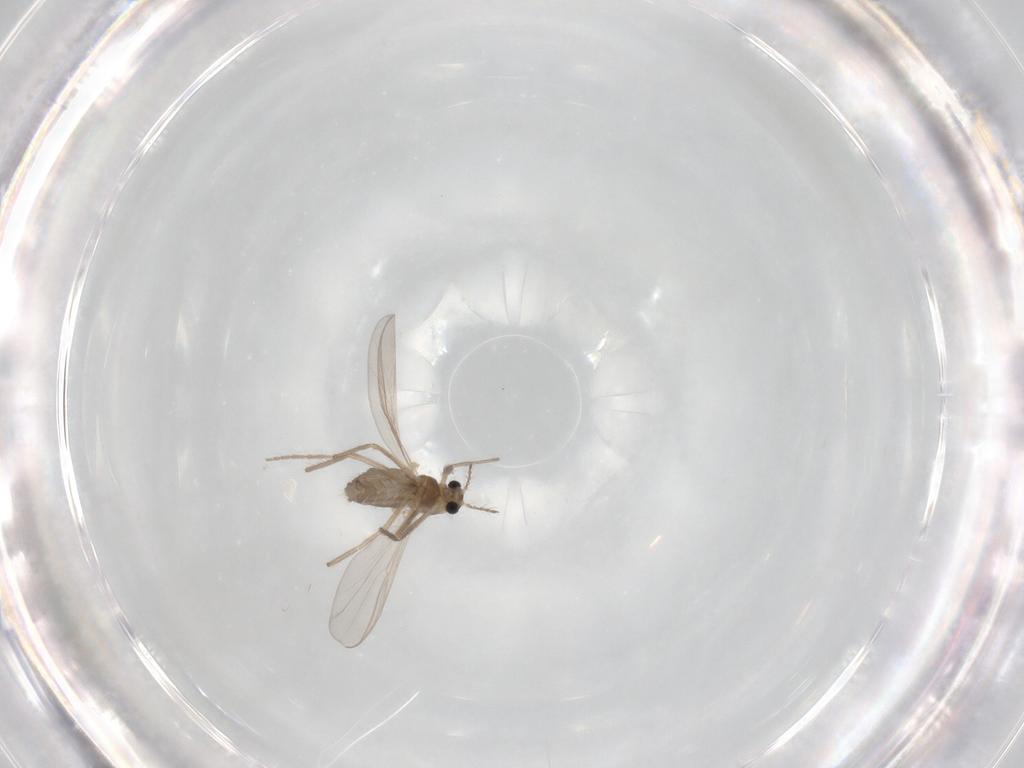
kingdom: Animalia
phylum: Arthropoda
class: Insecta
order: Diptera
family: Chironomidae
